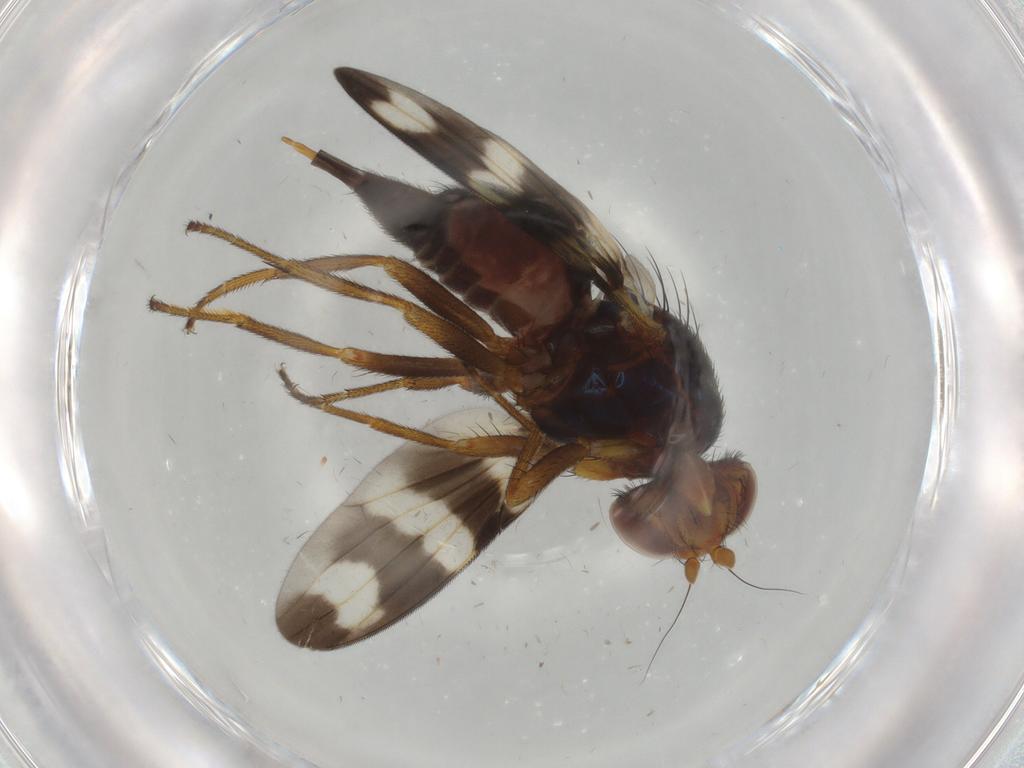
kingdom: Animalia
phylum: Arthropoda
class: Insecta
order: Diptera
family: Dolichopodidae
